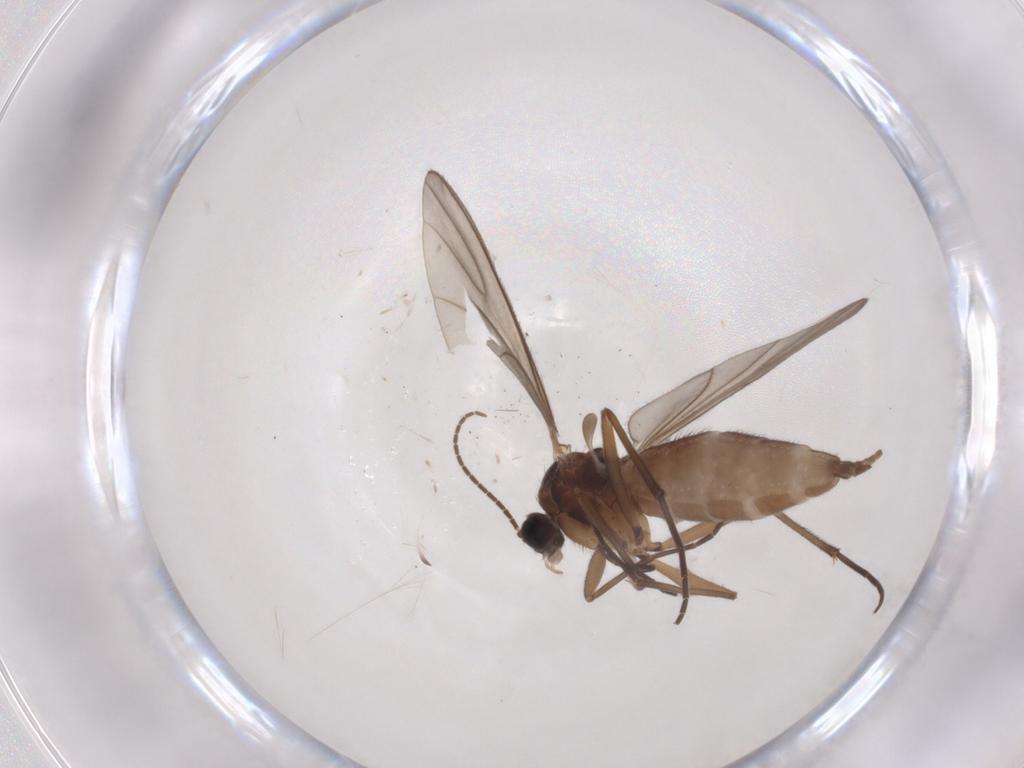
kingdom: Animalia
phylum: Arthropoda
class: Insecta
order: Diptera
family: Sciaridae
